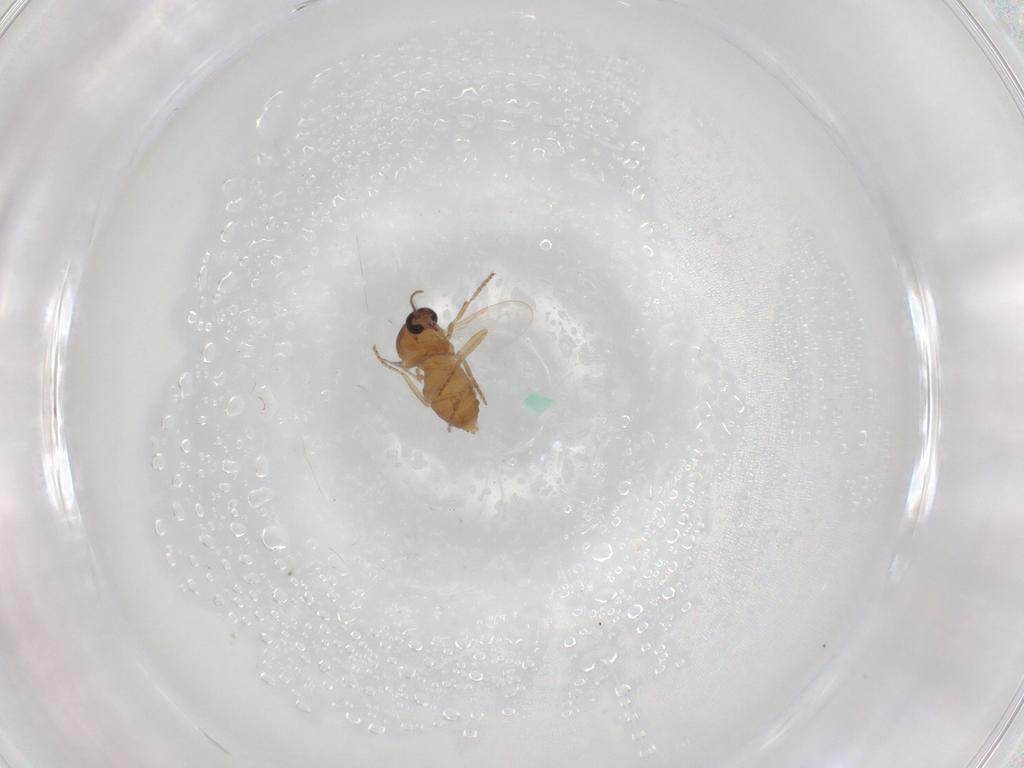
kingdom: Animalia
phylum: Arthropoda
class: Insecta
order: Diptera
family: Ceratopogonidae
